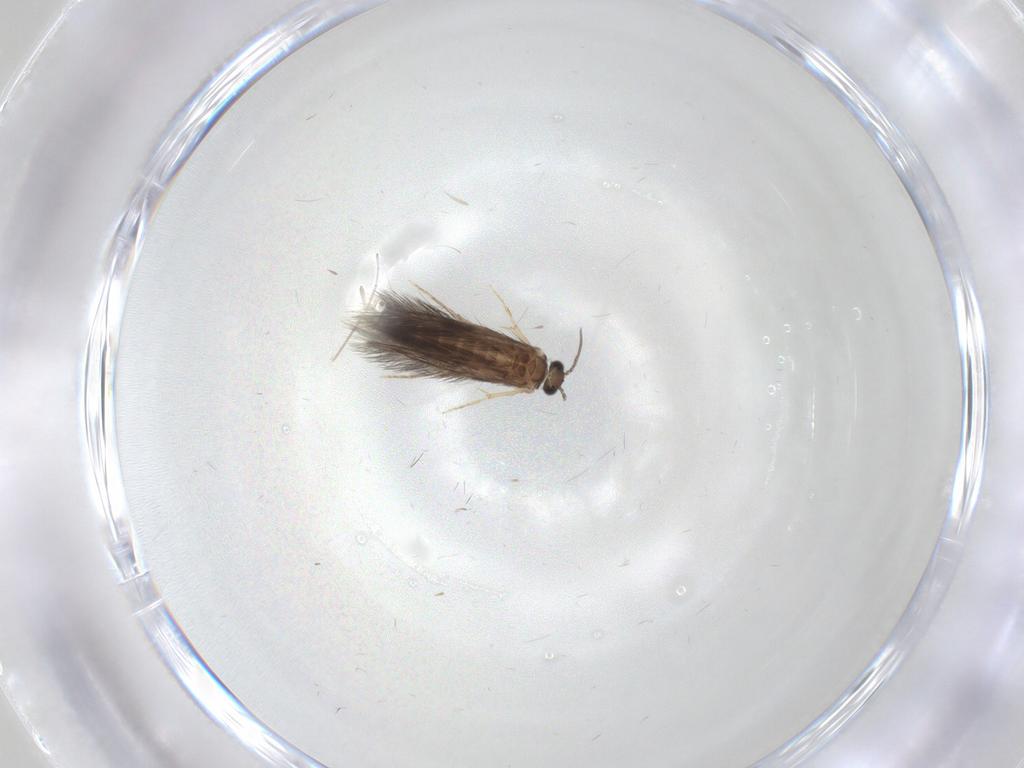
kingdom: Animalia
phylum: Arthropoda
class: Insecta
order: Trichoptera
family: Hydroptilidae
